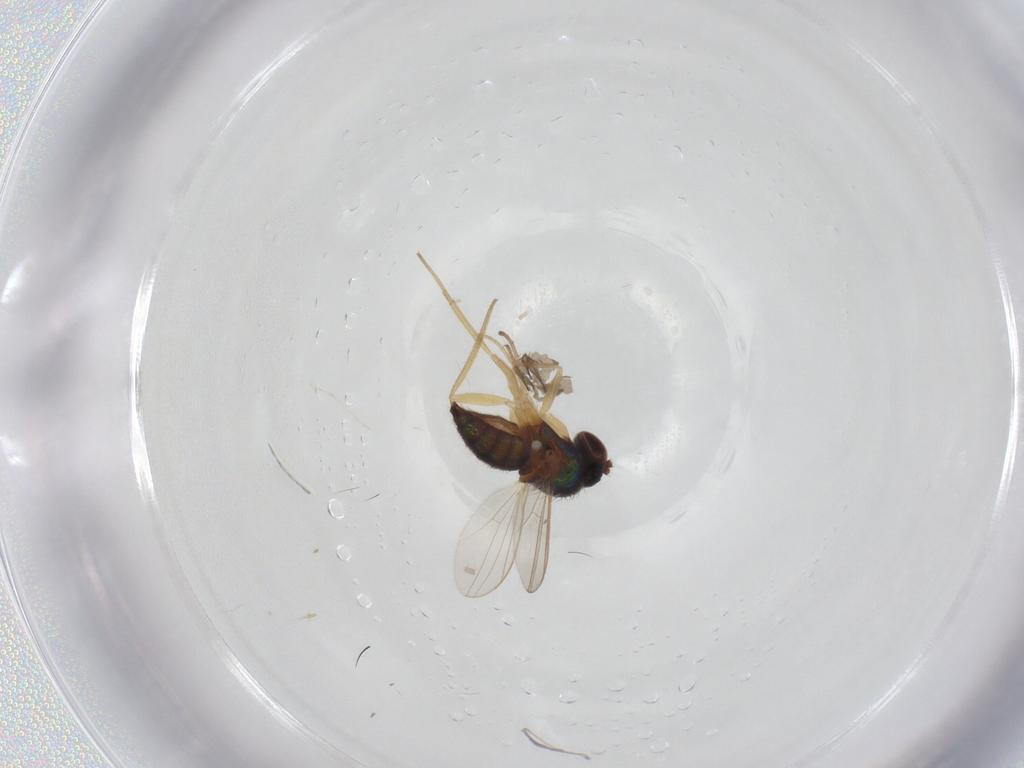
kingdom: Animalia
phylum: Arthropoda
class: Insecta
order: Diptera
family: Dolichopodidae
